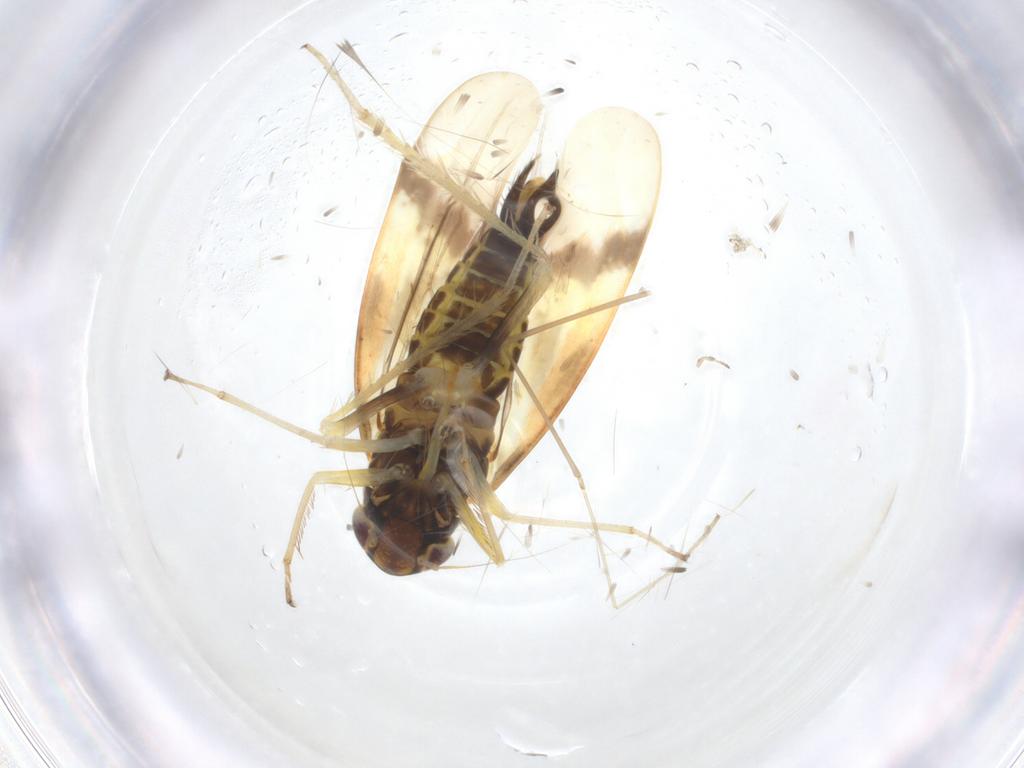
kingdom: Animalia
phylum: Arthropoda
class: Insecta
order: Hemiptera
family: Cicadellidae
